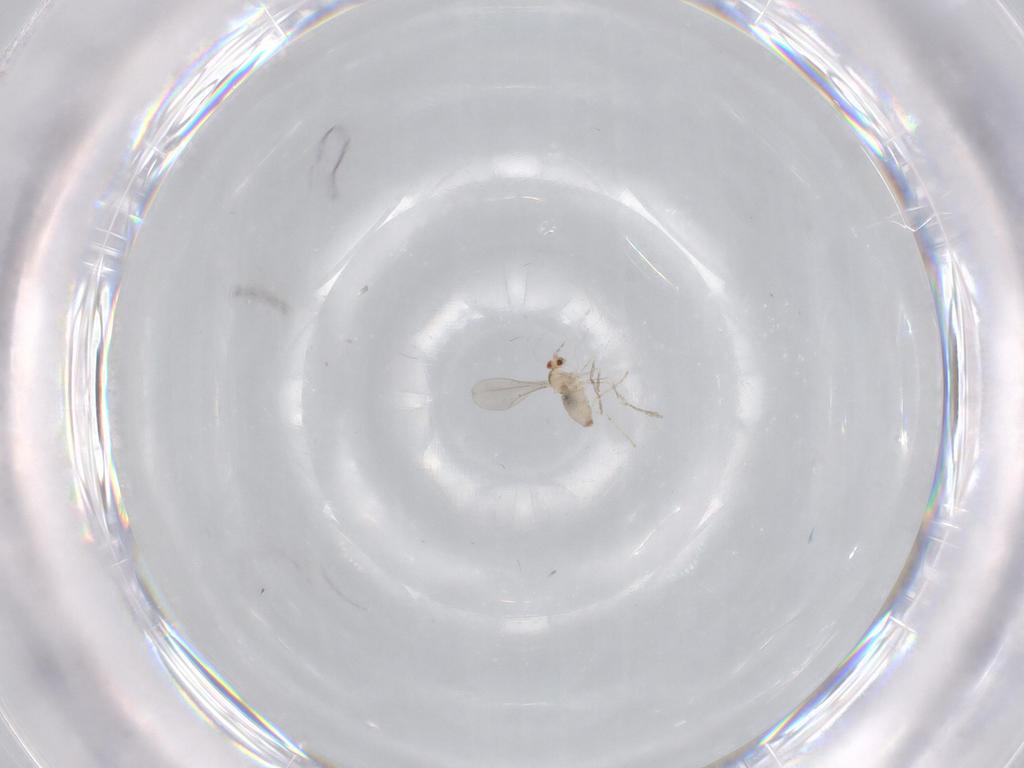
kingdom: Animalia
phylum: Arthropoda
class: Insecta
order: Diptera
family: Cecidomyiidae
